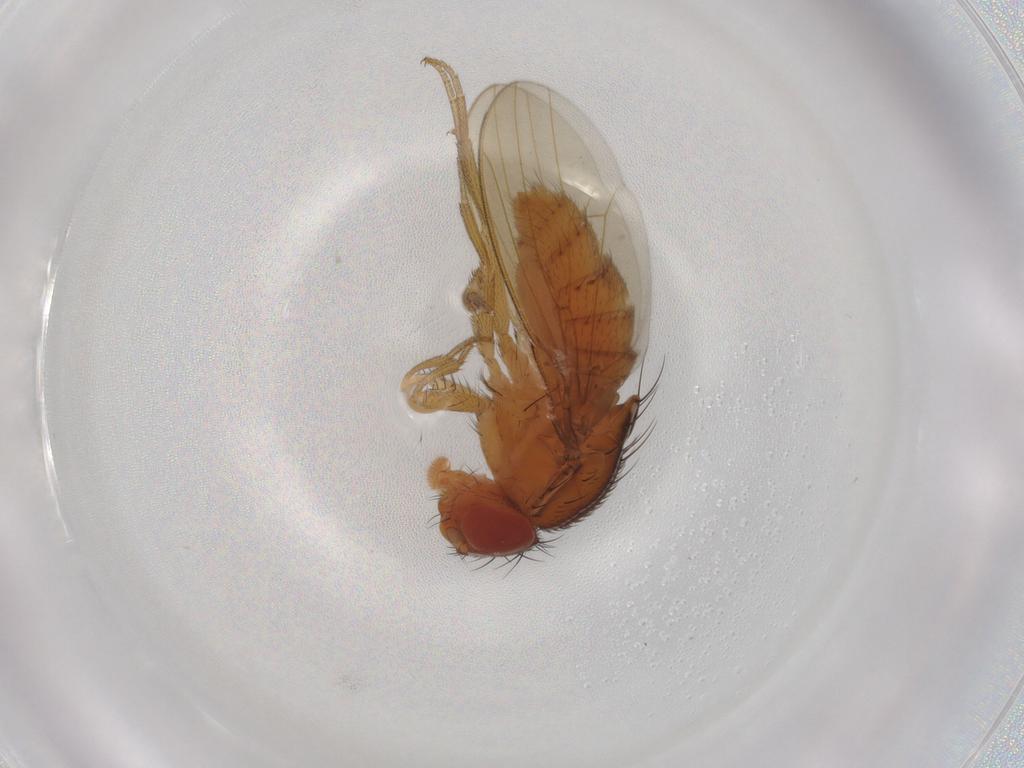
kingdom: Animalia
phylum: Arthropoda
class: Insecta
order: Diptera
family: Drosophilidae
